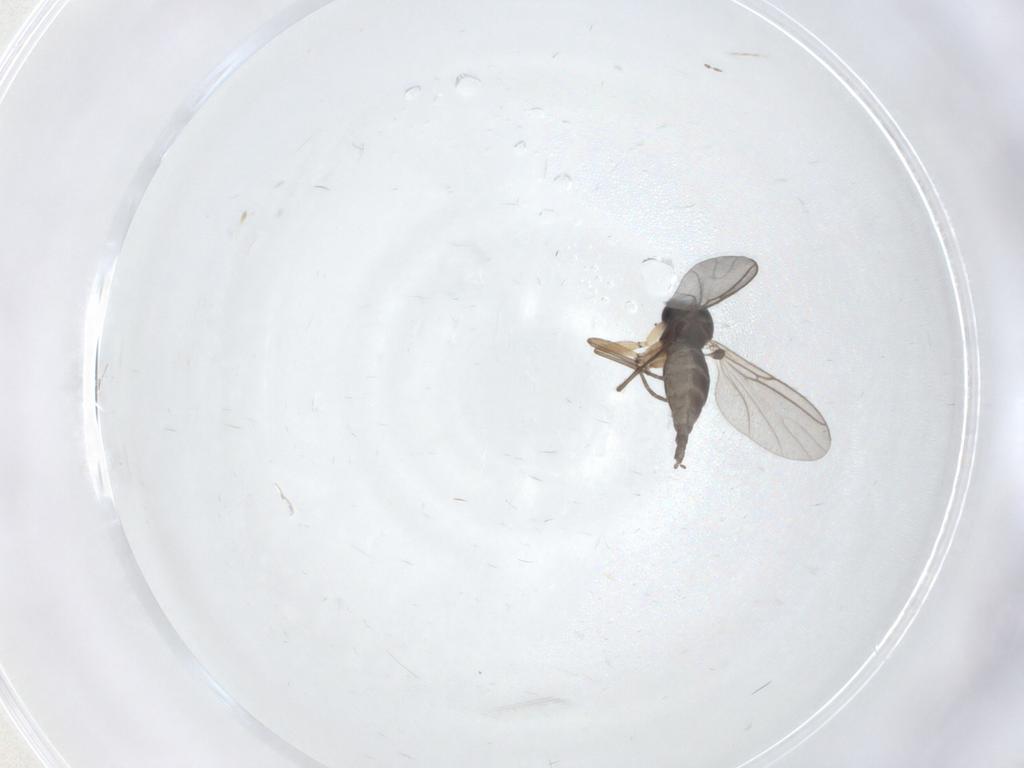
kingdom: Animalia
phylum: Arthropoda
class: Insecta
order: Diptera
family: Sciaridae
